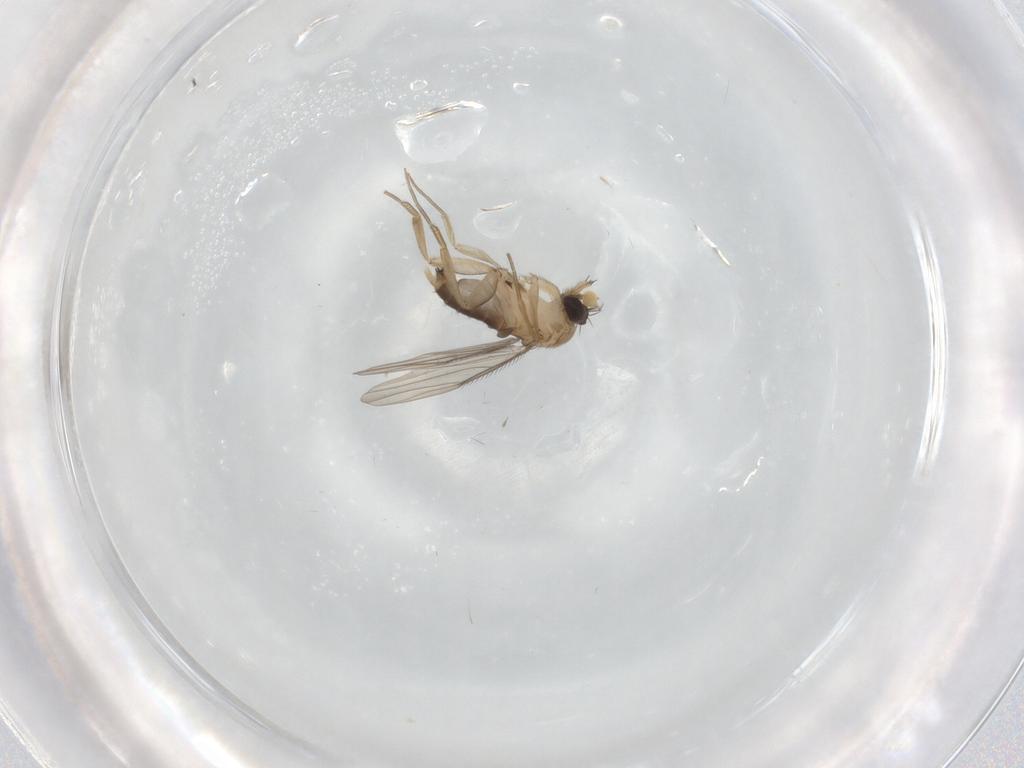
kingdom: Animalia
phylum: Arthropoda
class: Insecta
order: Diptera
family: Phoridae
